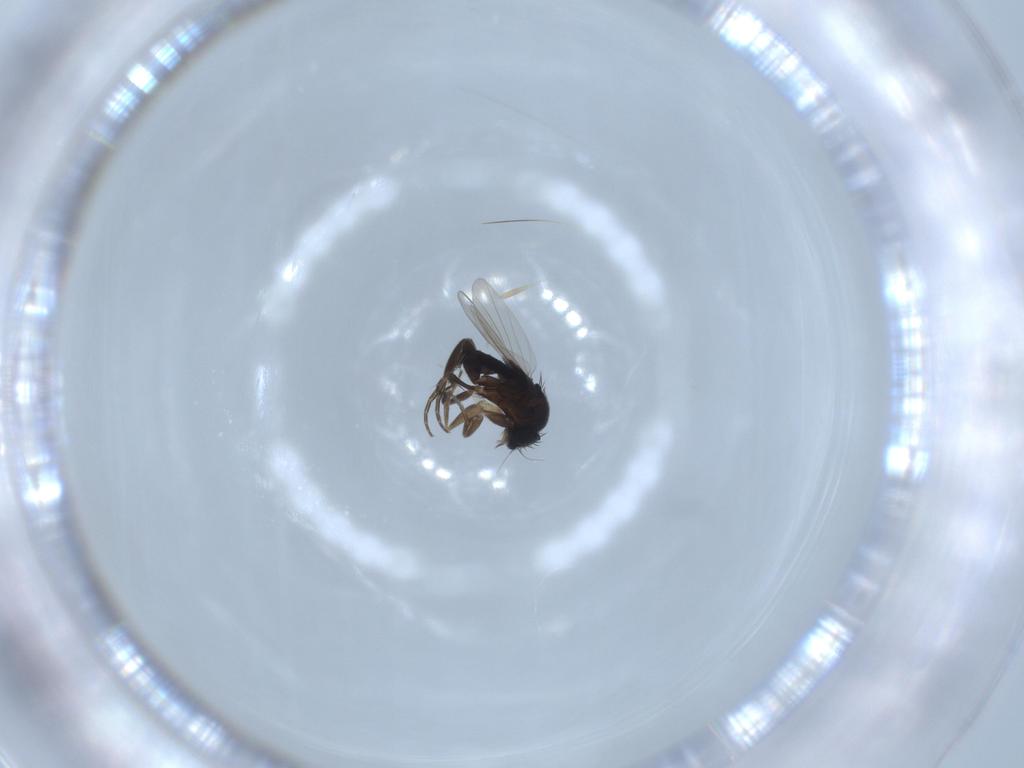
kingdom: Animalia
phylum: Arthropoda
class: Insecta
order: Diptera
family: Phoridae
